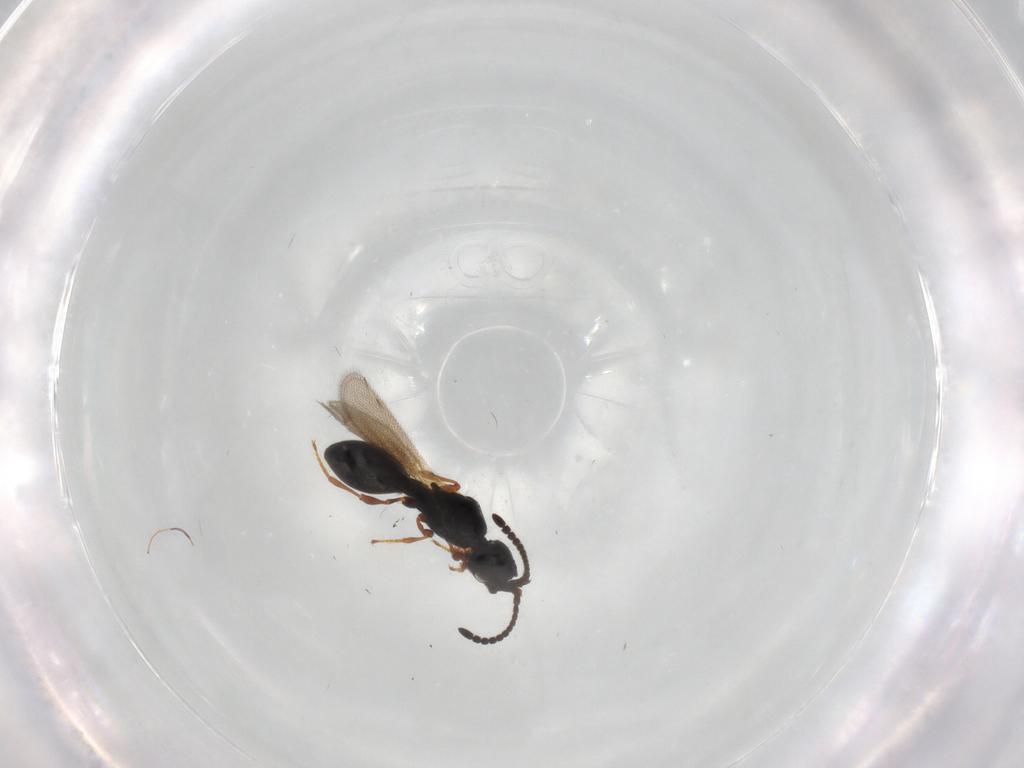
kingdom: Animalia
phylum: Arthropoda
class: Insecta
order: Hymenoptera
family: Diapriidae
